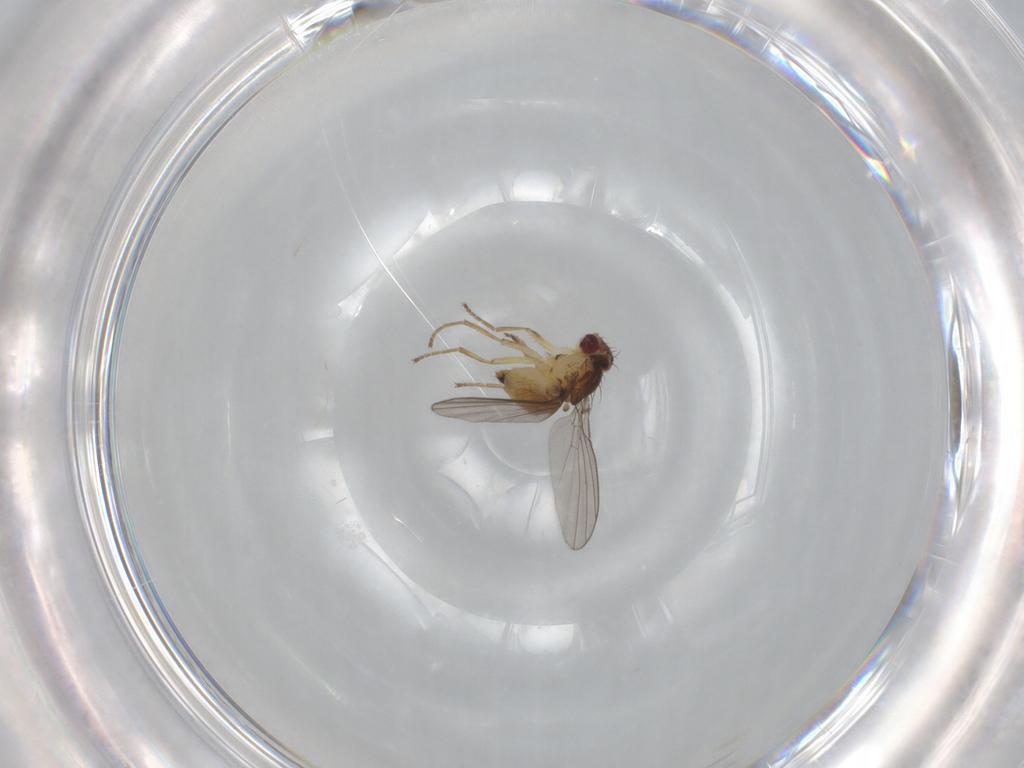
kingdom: Animalia
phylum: Arthropoda
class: Insecta
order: Diptera
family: Agromyzidae
